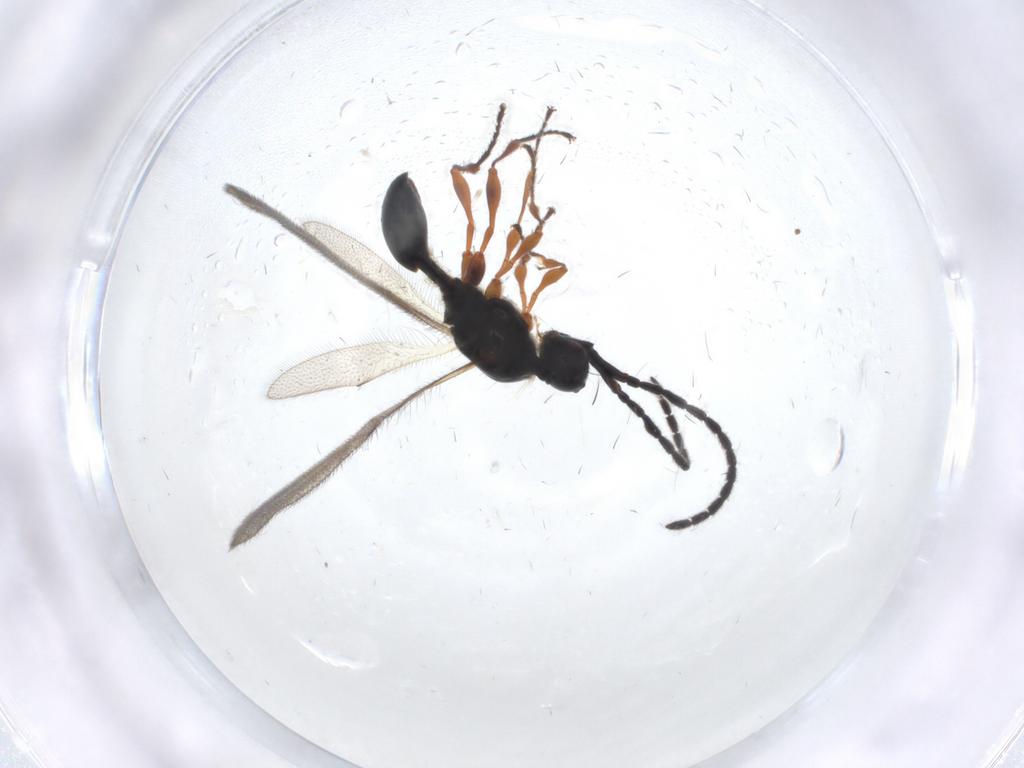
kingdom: Animalia
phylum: Arthropoda
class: Insecta
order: Hymenoptera
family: Diapriidae
